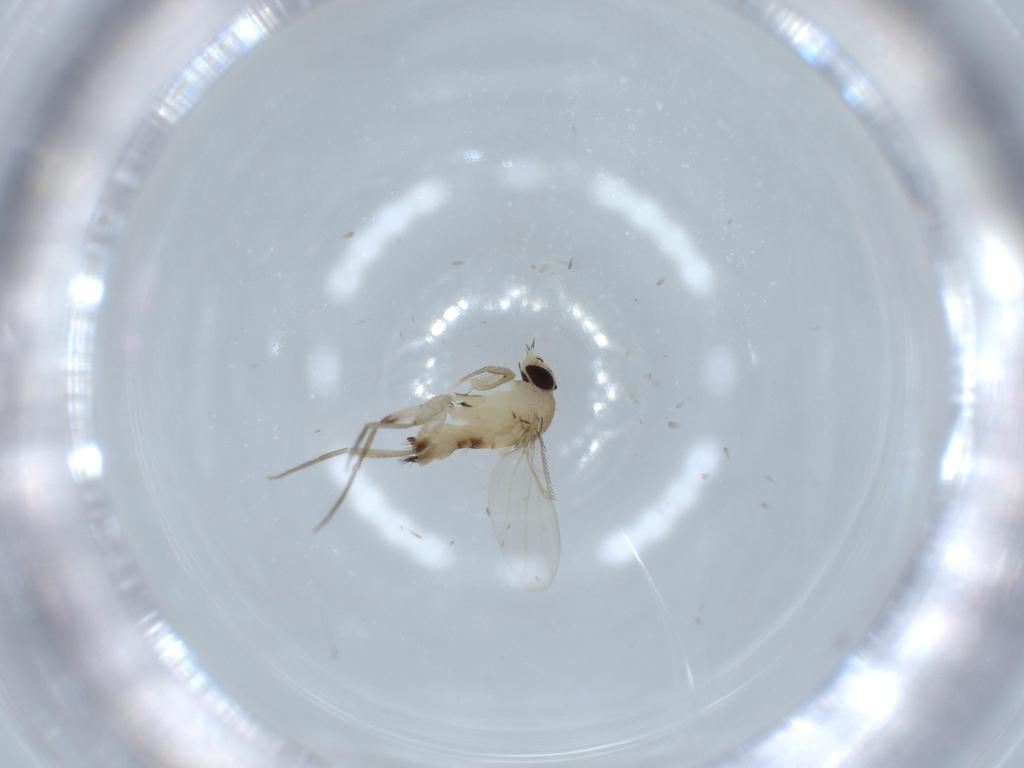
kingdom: Animalia
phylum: Arthropoda
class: Insecta
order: Diptera
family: Phoridae
